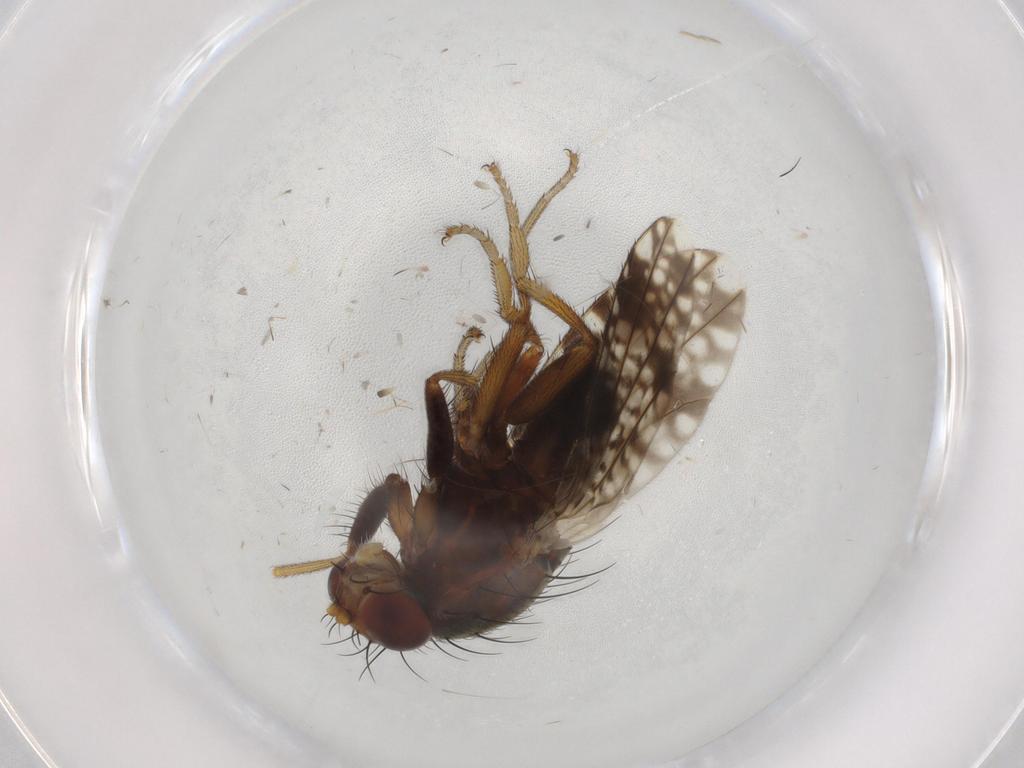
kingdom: Animalia
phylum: Arthropoda
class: Insecta
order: Diptera
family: Tephritidae
